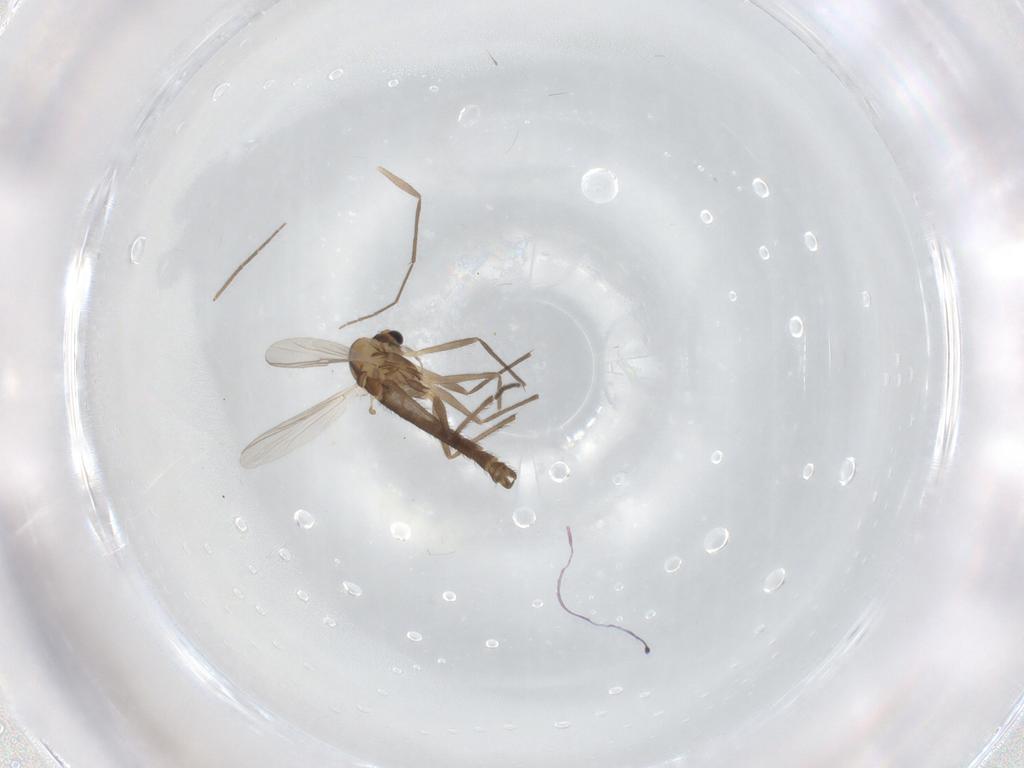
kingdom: Animalia
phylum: Arthropoda
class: Insecta
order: Diptera
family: Chironomidae
